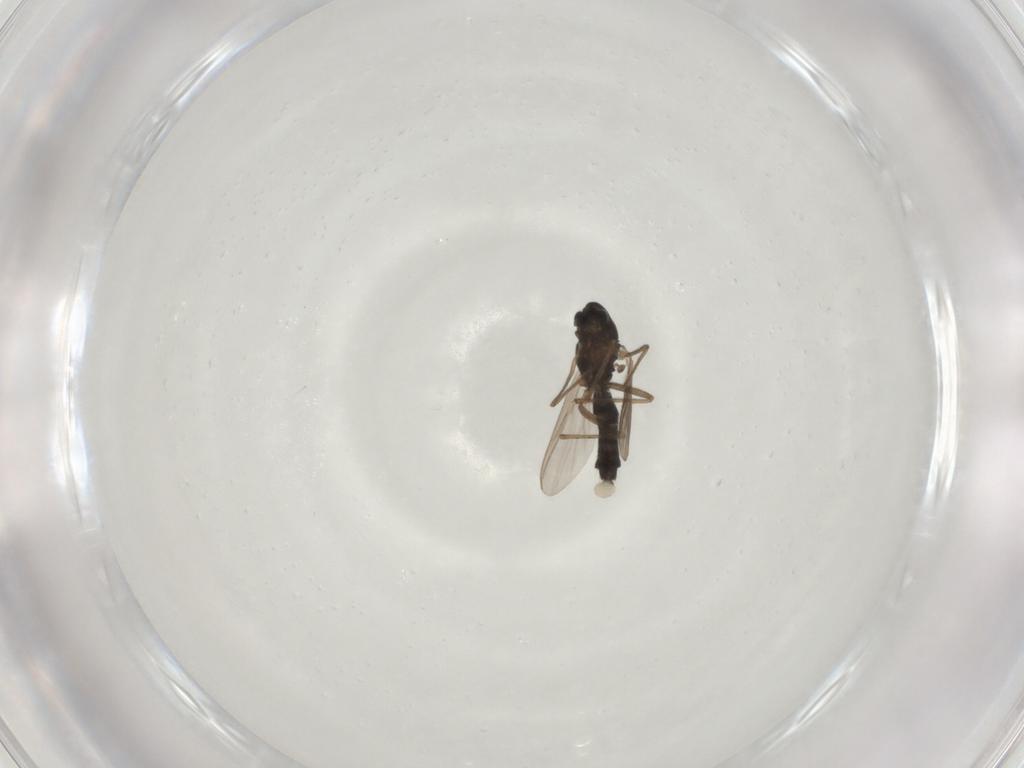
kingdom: Animalia
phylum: Arthropoda
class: Insecta
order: Diptera
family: Chironomidae
